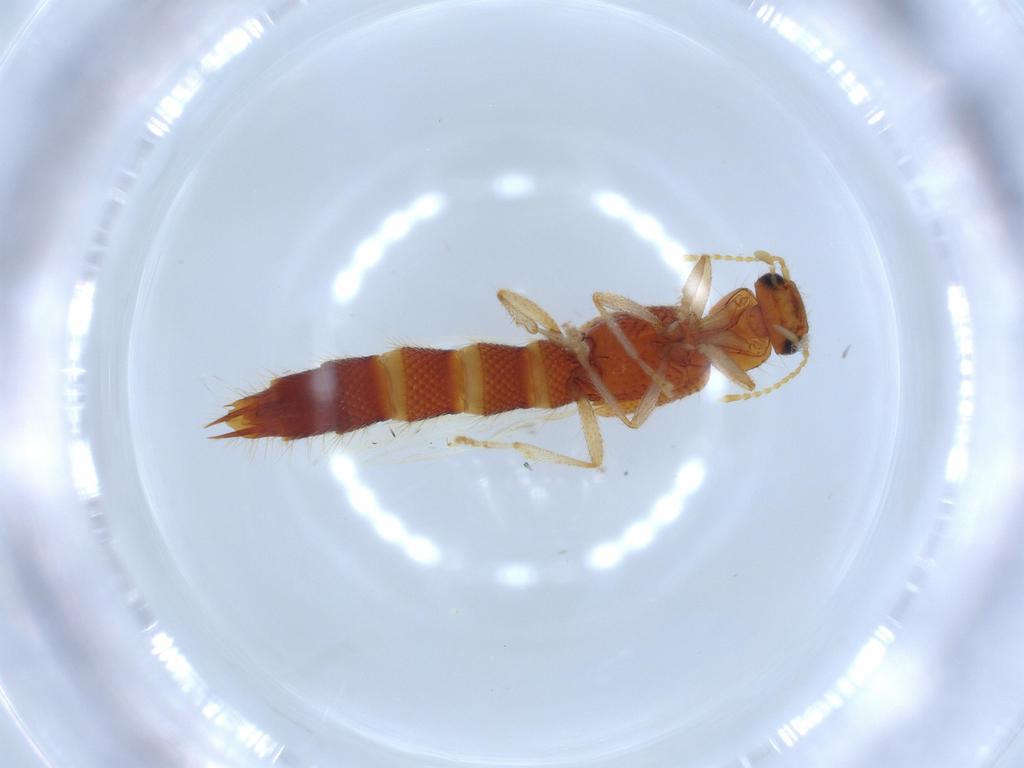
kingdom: Animalia
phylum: Arthropoda
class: Insecta
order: Coleoptera
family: Staphylinidae
